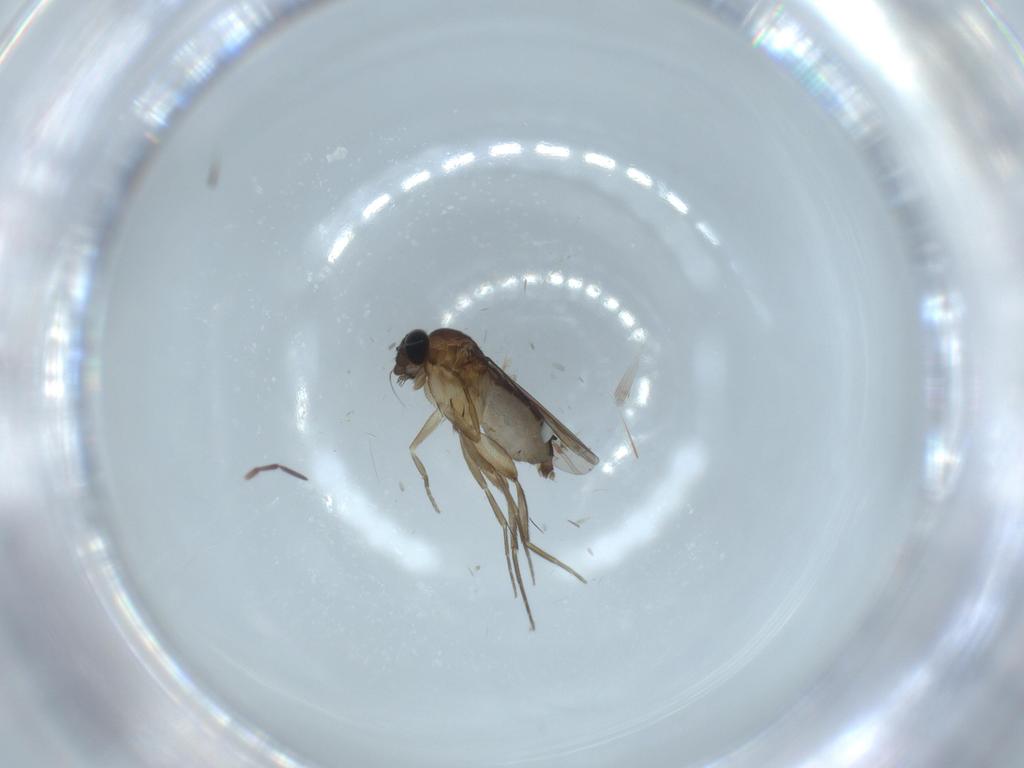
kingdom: Animalia
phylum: Arthropoda
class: Insecta
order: Diptera
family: Phoridae
